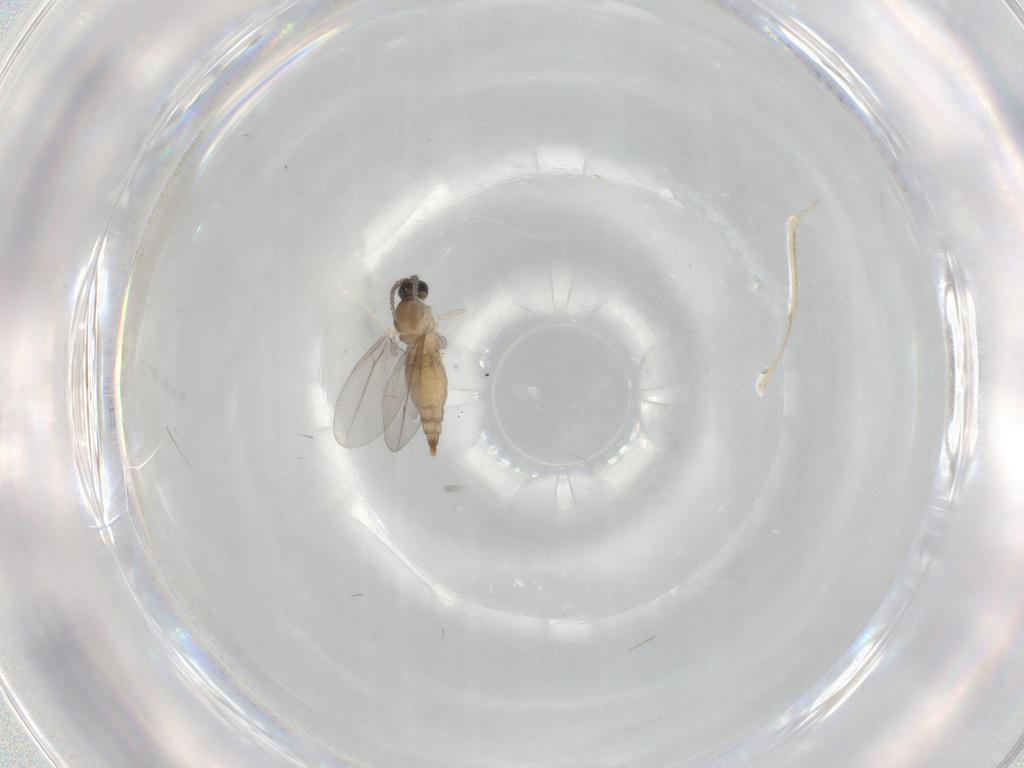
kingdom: Animalia
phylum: Arthropoda
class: Insecta
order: Diptera
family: Cecidomyiidae
